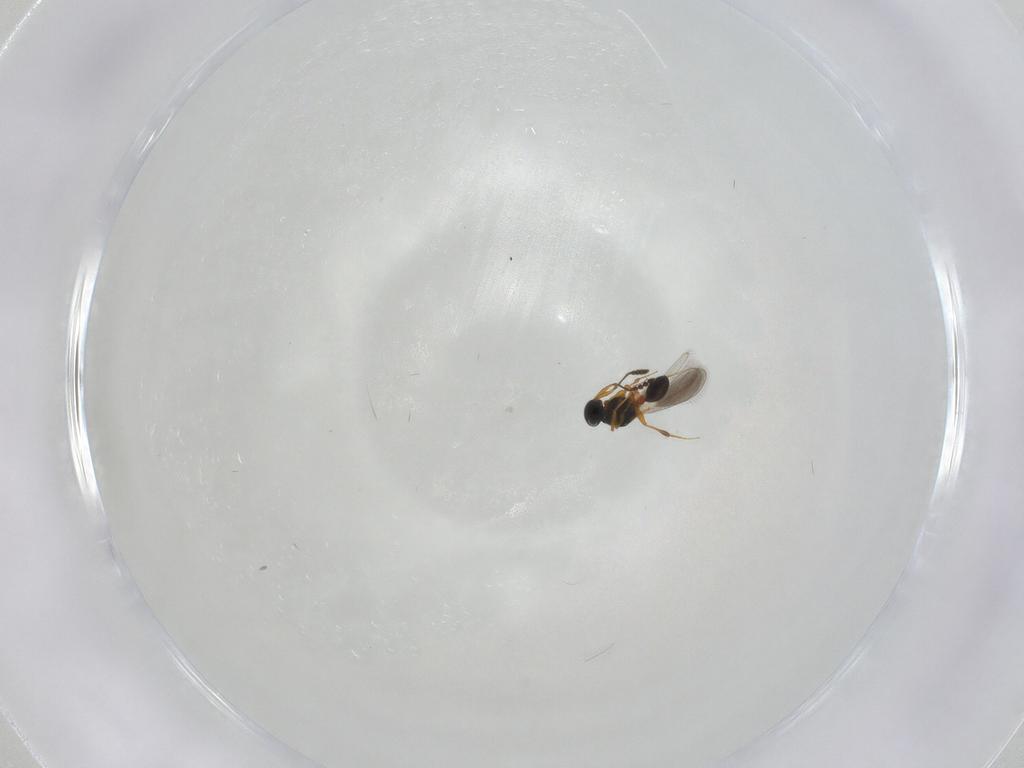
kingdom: Animalia
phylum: Arthropoda
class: Insecta
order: Hymenoptera
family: Platygastridae
